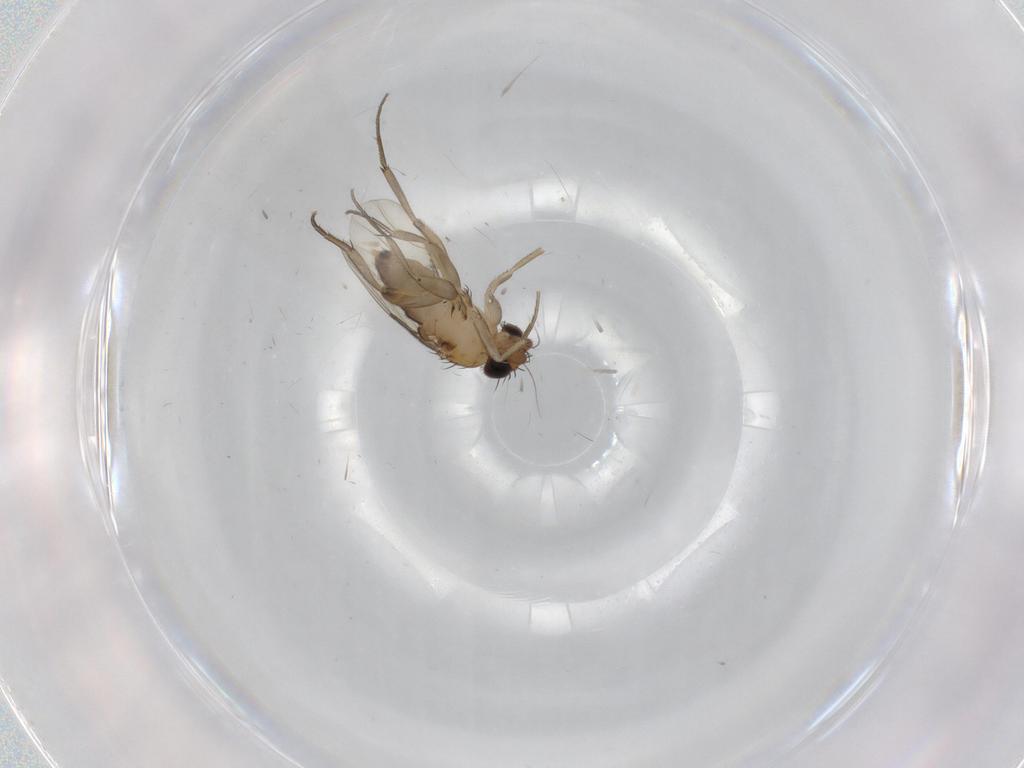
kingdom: Animalia
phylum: Arthropoda
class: Insecta
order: Diptera
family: Phoridae
